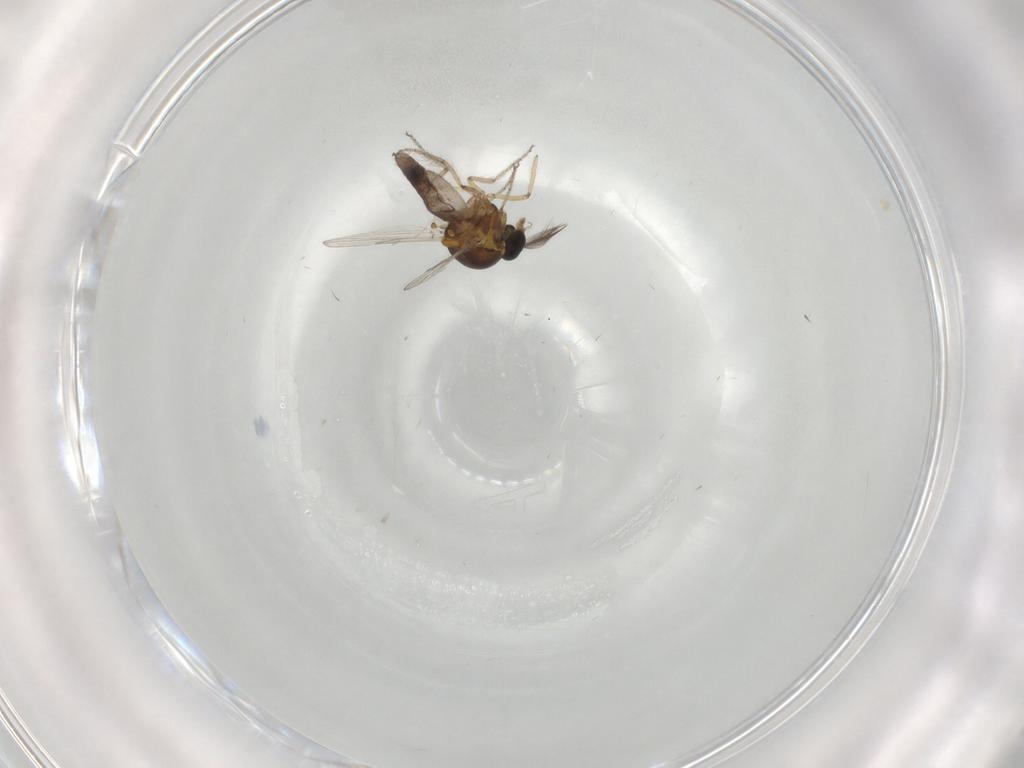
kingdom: Animalia
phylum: Arthropoda
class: Insecta
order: Diptera
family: Ceratopogonidae
